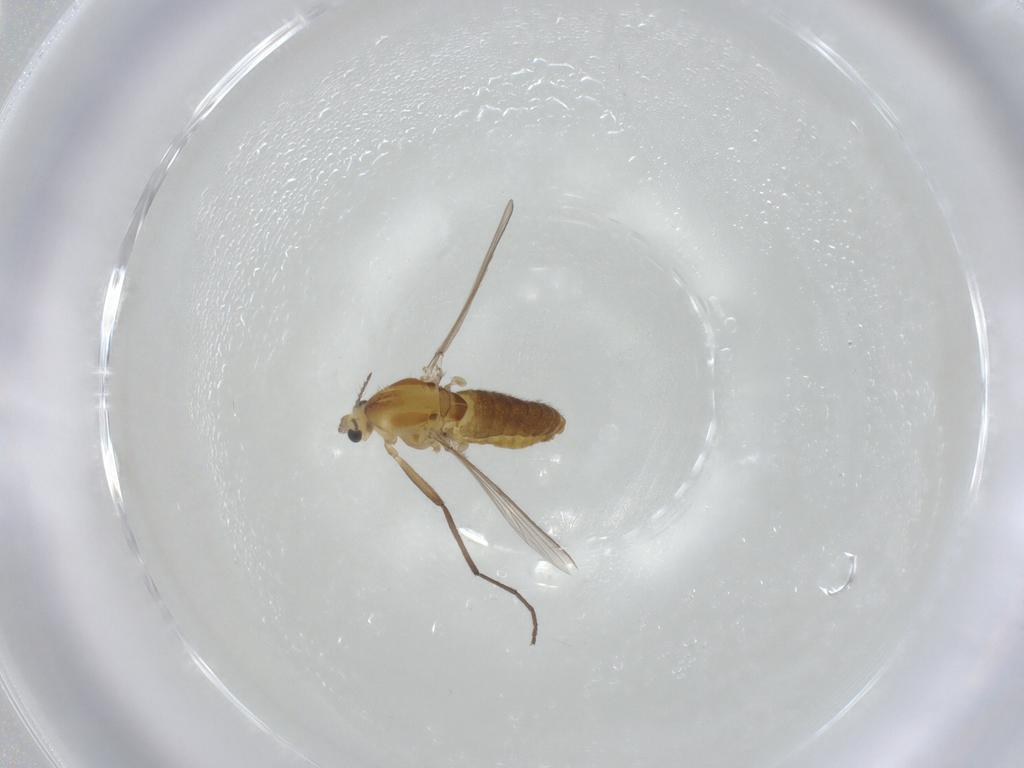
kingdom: Animalia
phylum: Arthropoda
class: Insecta
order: Diptera
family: Chironomidae
